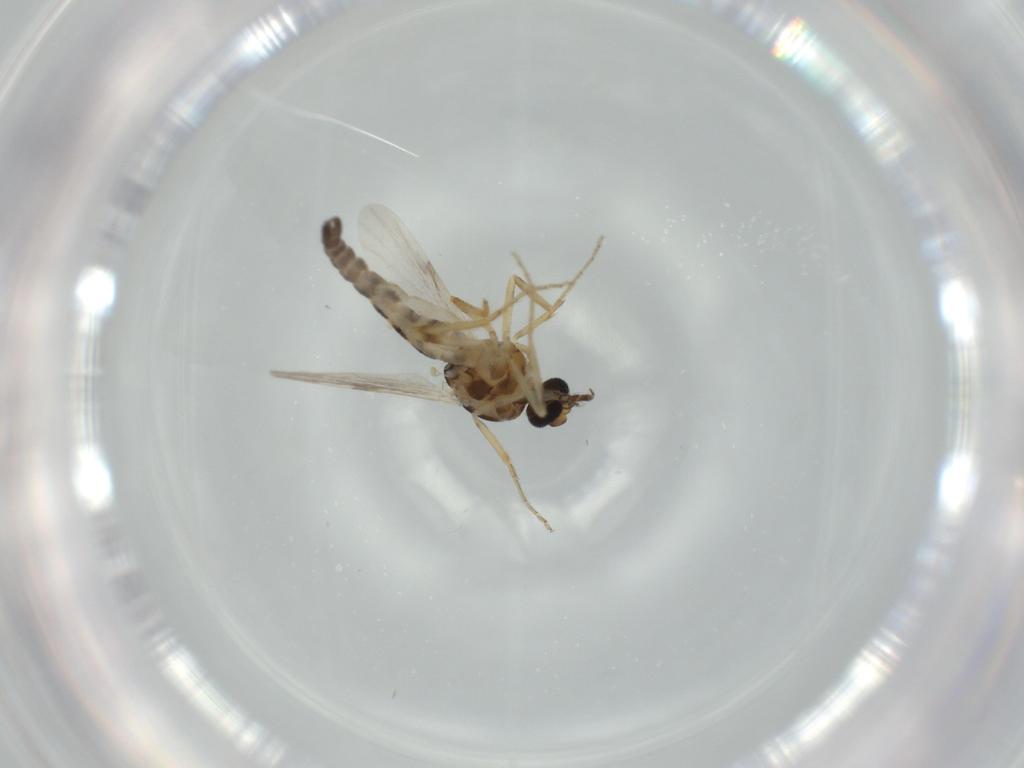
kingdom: Animalia
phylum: Arthropoda
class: Insecta
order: Diptera
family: Ceratopogonidae
